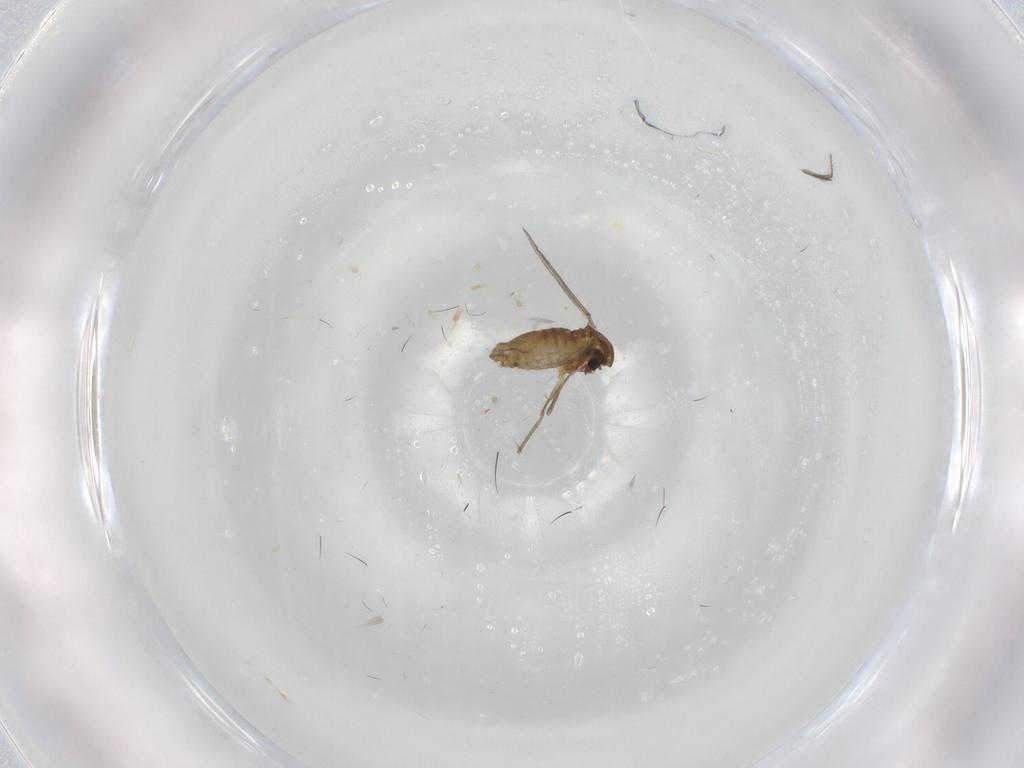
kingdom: Animalia
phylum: Arthropoda
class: Insecta
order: Diptera
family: Chironomidae
